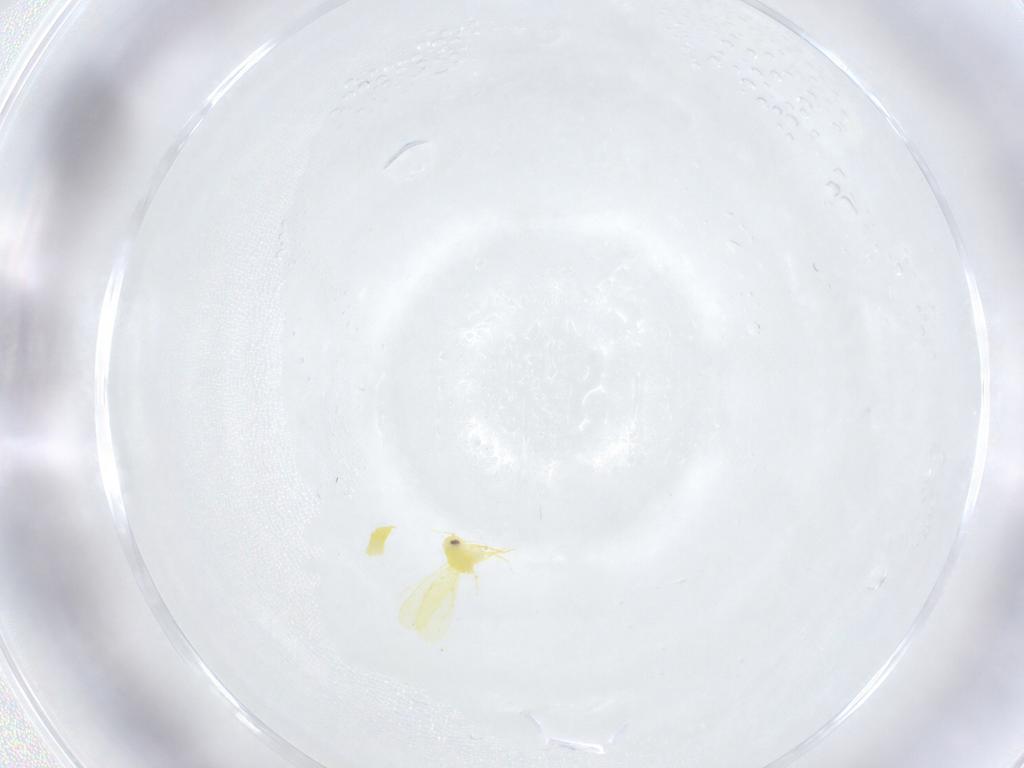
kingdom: Animalia
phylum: Arthropoda
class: Insecta
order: Hemiptera
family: Aleyrodidae
